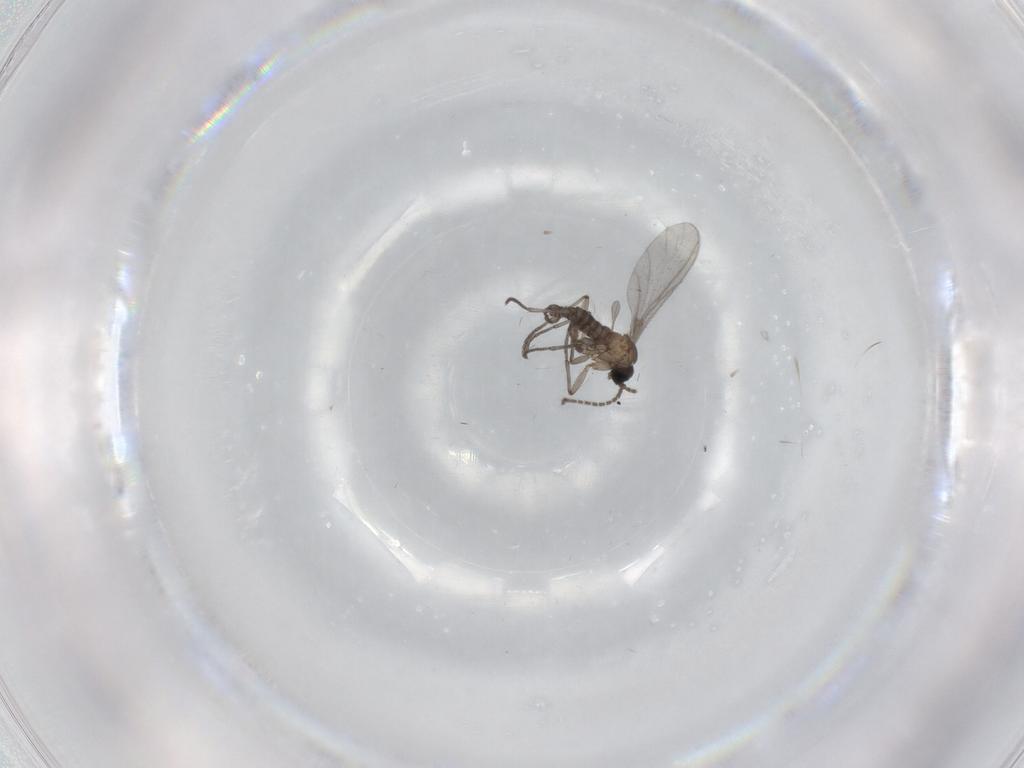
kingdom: Animalia
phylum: Arthropoda
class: Insecta
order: Diptera
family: Sciaridae
